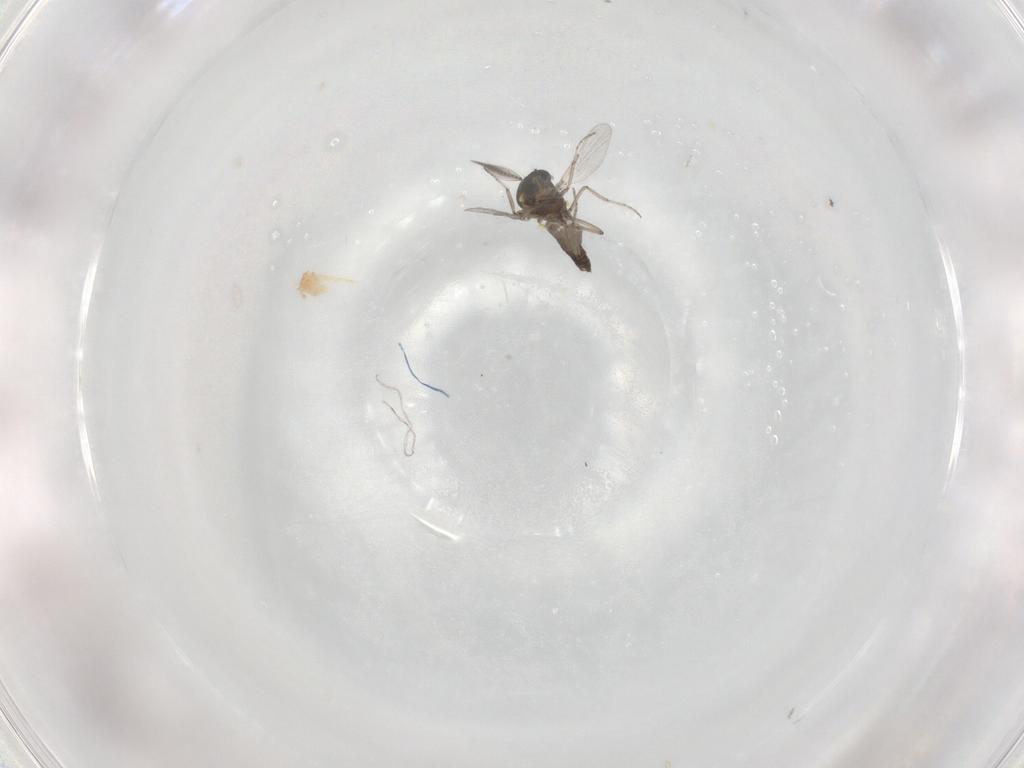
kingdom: Animalia
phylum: Arthropoda
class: Insecta
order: Diptera
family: Ceratopogonidae
